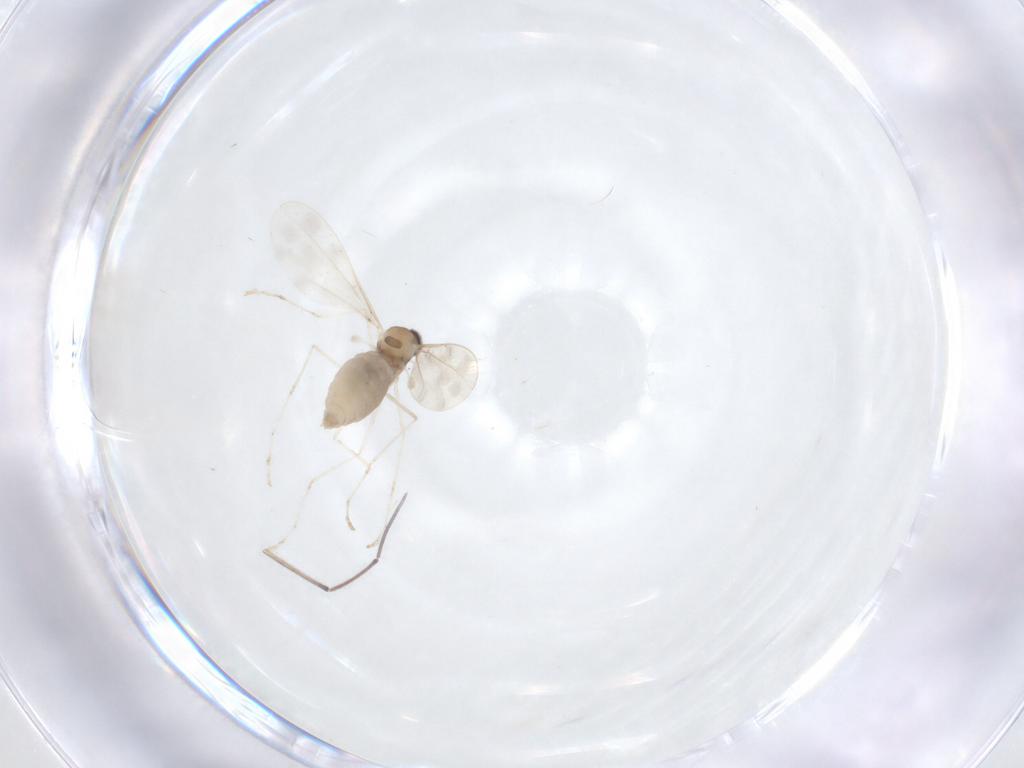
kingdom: Animalia
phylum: Arthropoda
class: Insecta
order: Diptera
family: Cecidomyiidae
